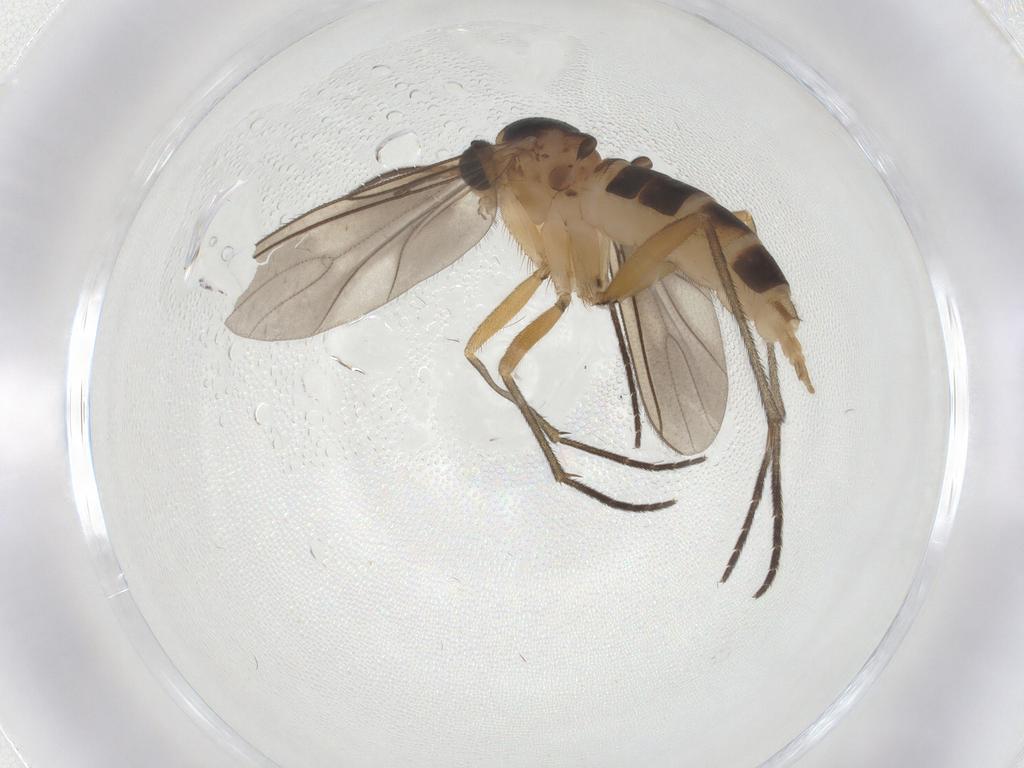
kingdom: Animalia
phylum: Arthropoda
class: Insecta
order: Diptera
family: Sciaridae
